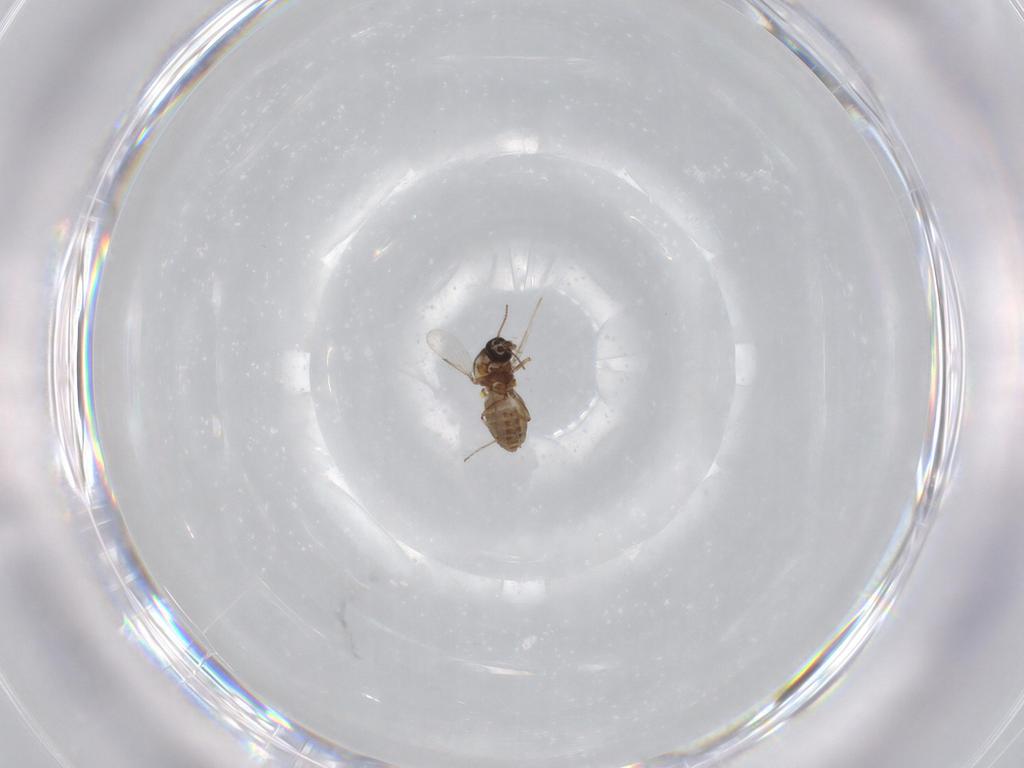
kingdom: Animalia
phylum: Arthropoda
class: Insecta
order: Diptera
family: Ceratopogonidae
